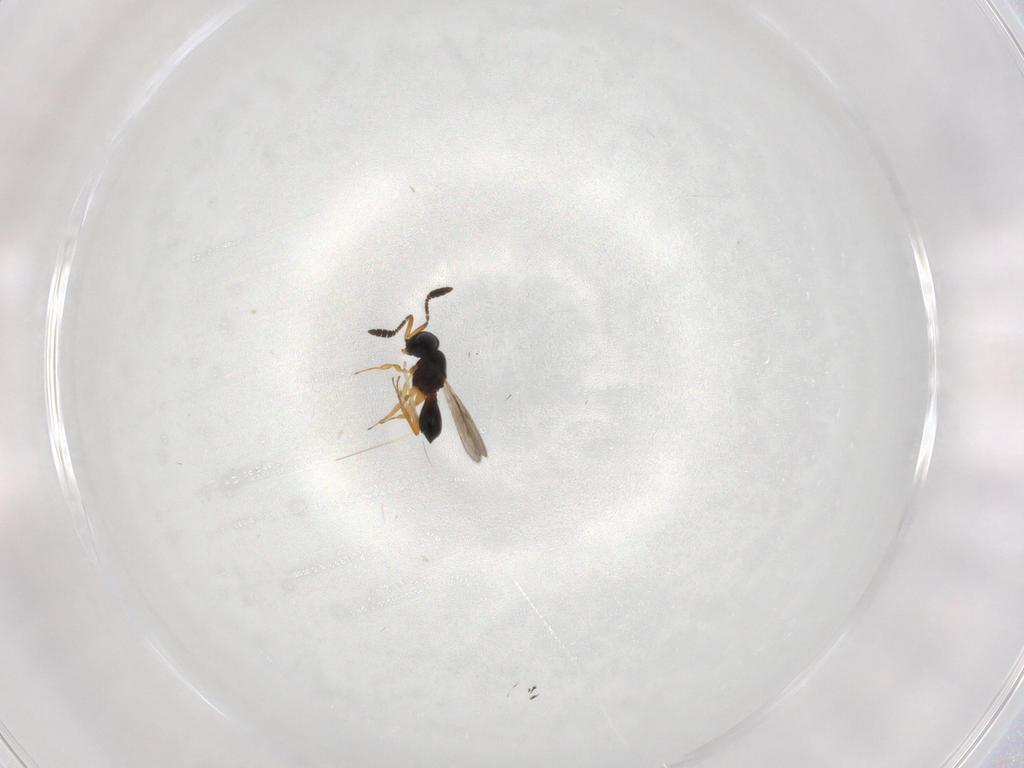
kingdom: Animalia
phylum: Arthropoda
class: Insecta
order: Hymenoptera
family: Scelionidae
